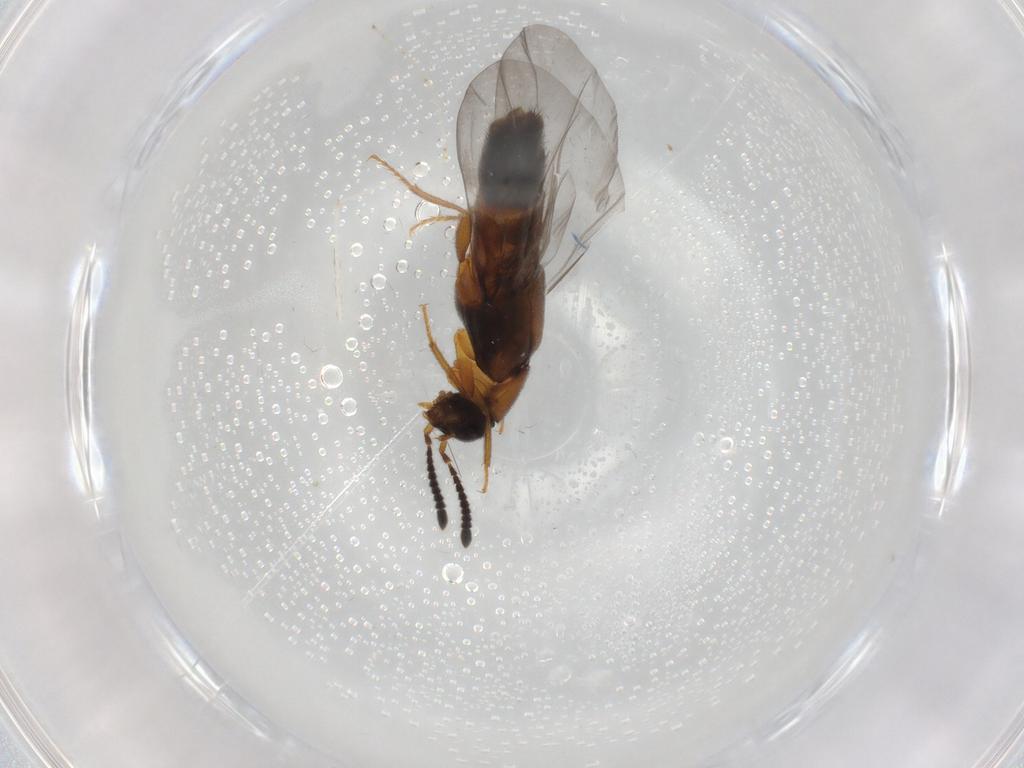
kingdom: Animalia
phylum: Arthropoda
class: Insecta
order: Coleoptera
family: Staphylinidae
